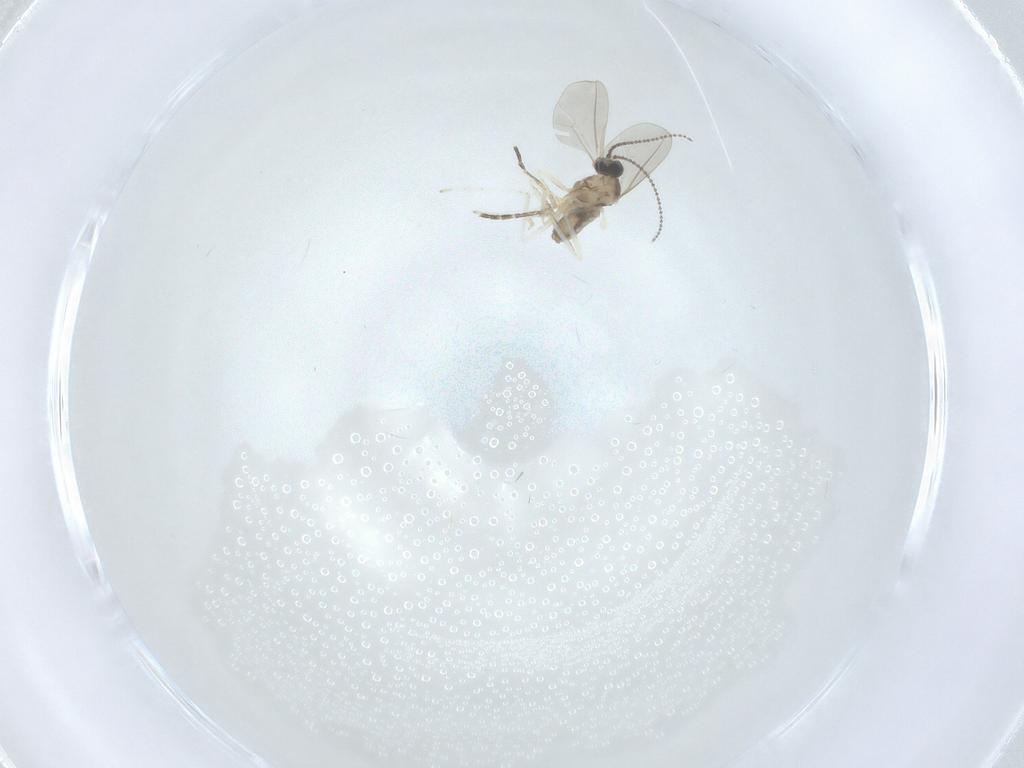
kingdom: Animalia
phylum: Arthropoda
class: Insecta
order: Diptera
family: Cecidomyiidae
